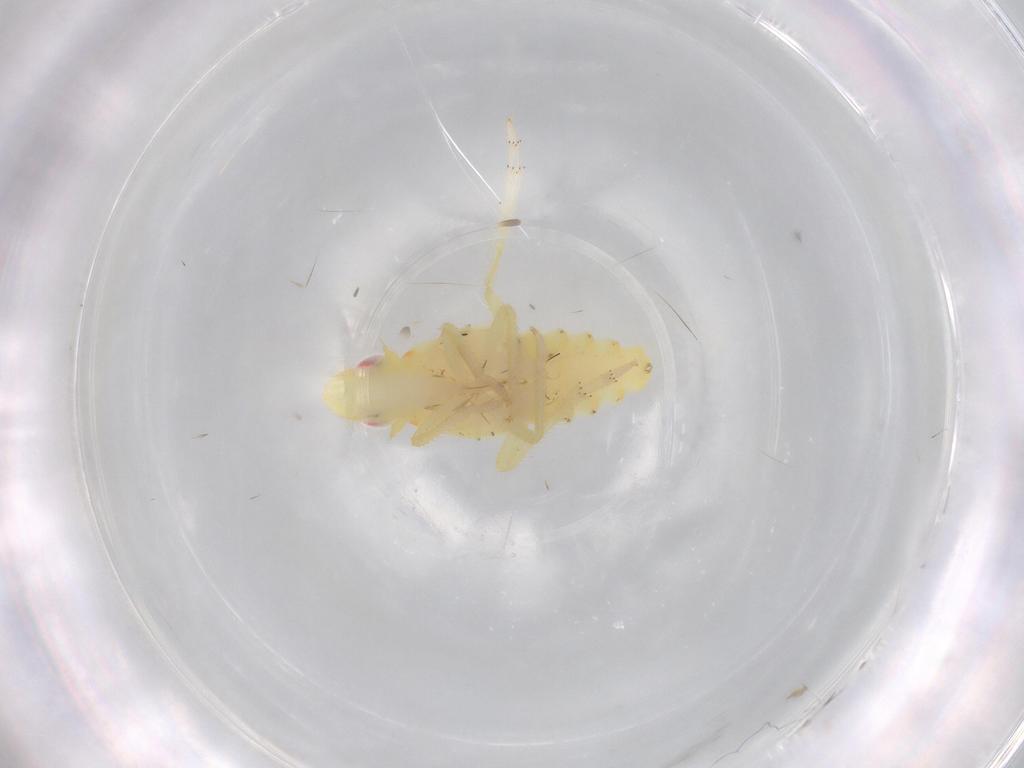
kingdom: Animalia
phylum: Arthropoda
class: Insecta
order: Hemiptera
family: Tropiduchidae
